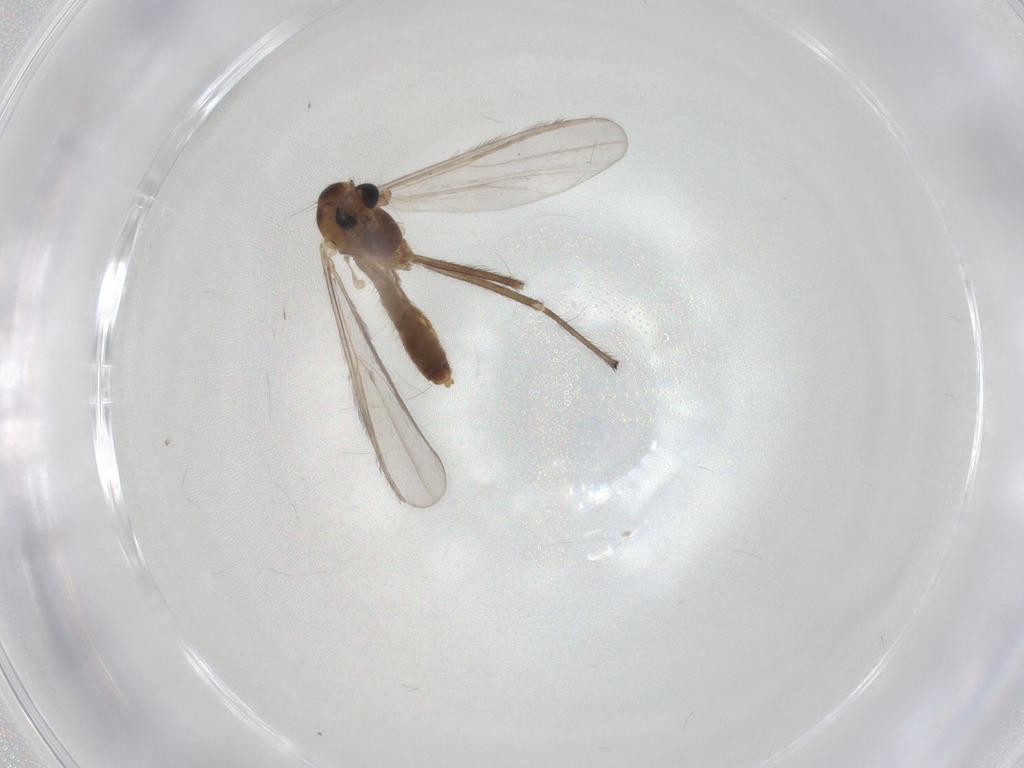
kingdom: Animalia
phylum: Arthropoda
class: Insecta
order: Diptera
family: Chironomidae
